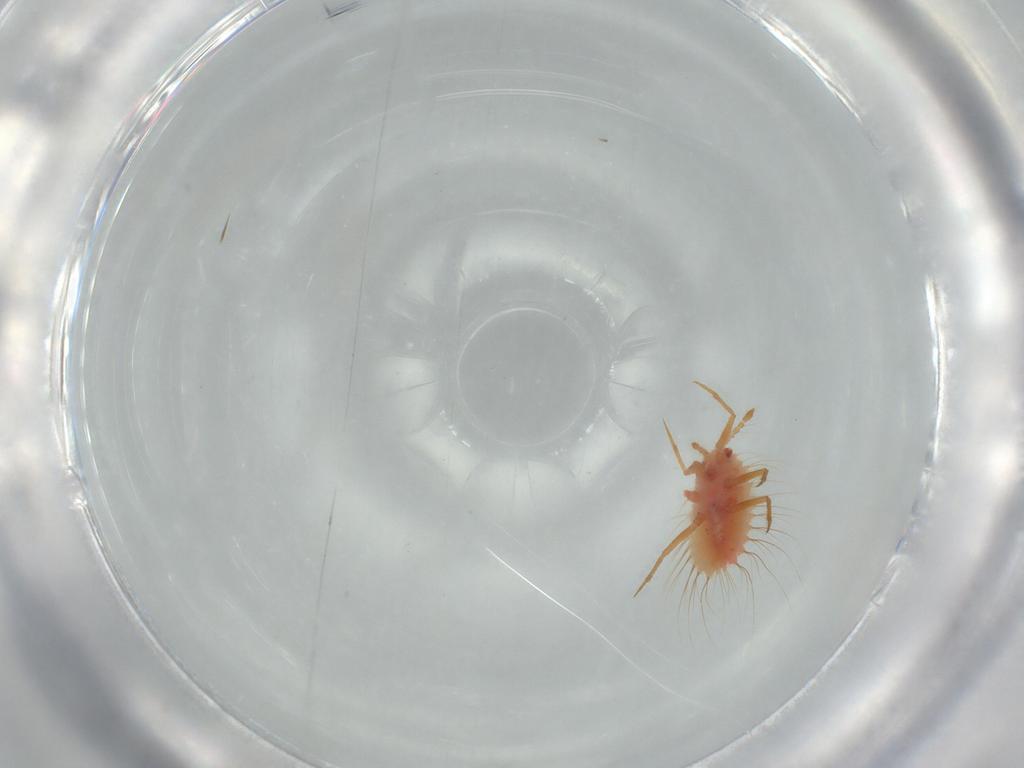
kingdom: Animalia
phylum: Arthropoda
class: Insecta
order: Hemiptera
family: Monophlebidae
